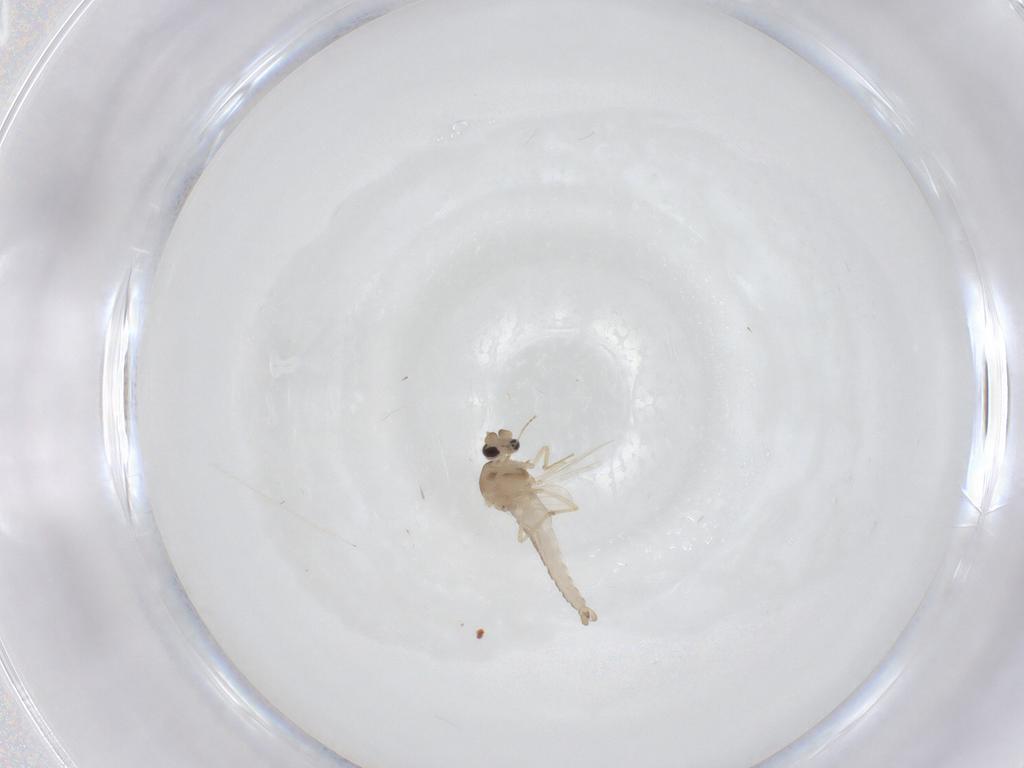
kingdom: Animalia
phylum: Arthropoda
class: Insecta
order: Diptera
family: Ceratopogonidae
